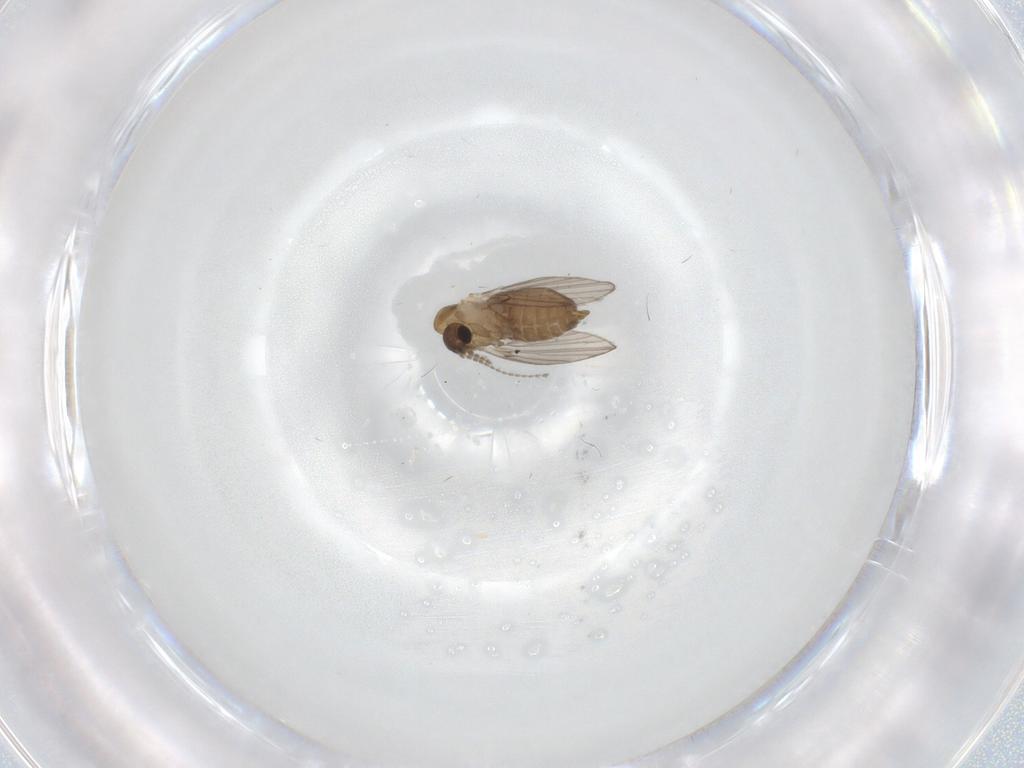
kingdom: Animalia
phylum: Arthropoda
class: Insecta
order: Diptera
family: Limoniidae
